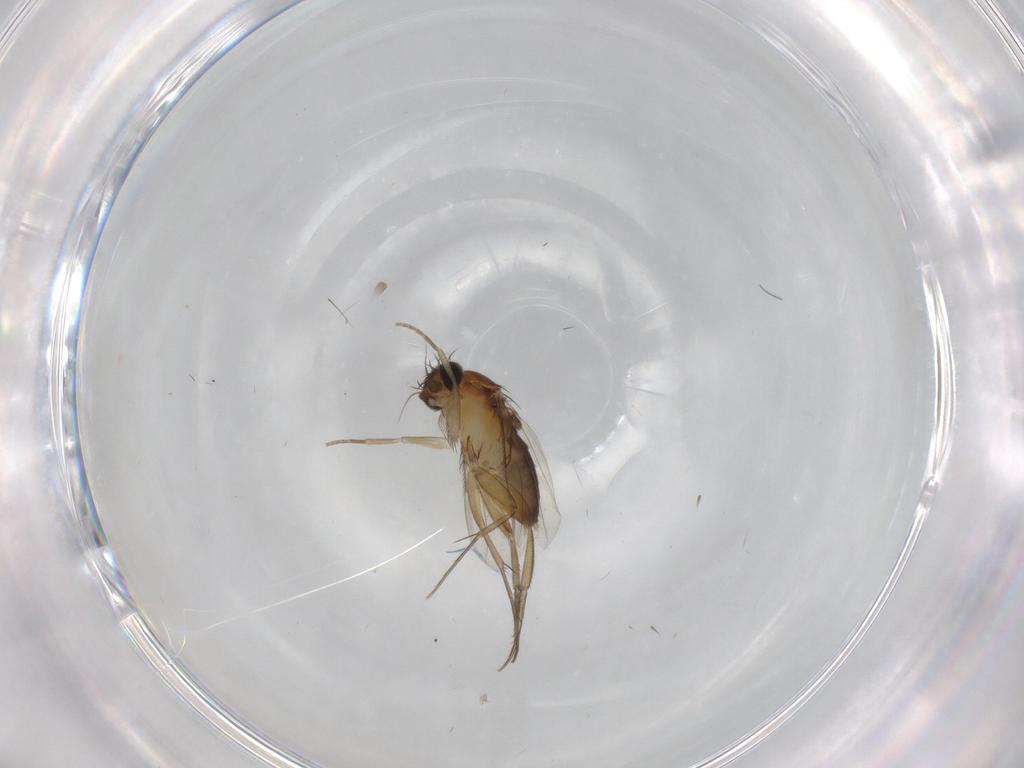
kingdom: Animalia
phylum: Arthropoda
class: Insecta
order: Diptera
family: Phoridae
